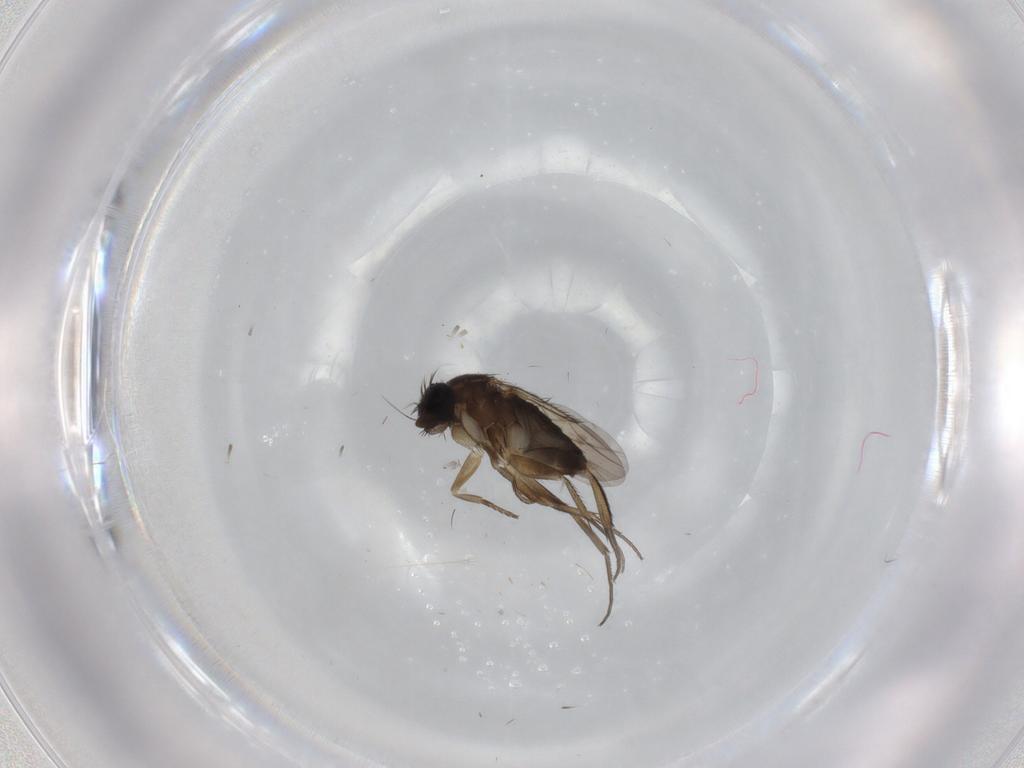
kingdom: Animalia
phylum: Arthropoda
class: Insecta
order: Diptera
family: Phoridae
